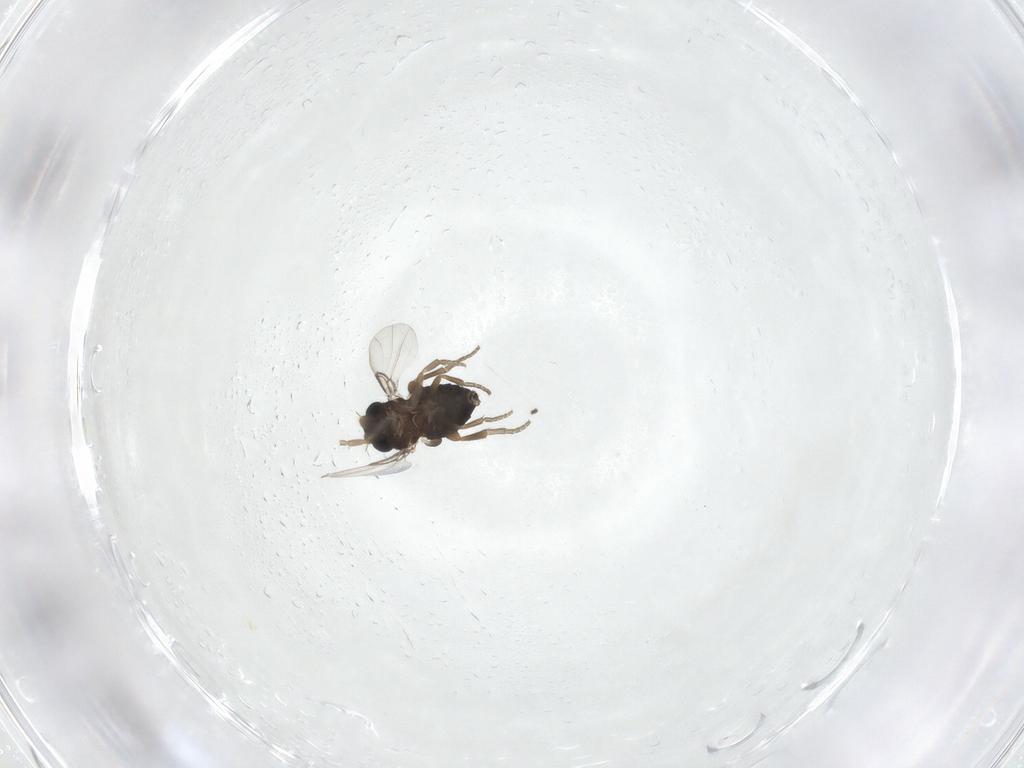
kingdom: Animalia
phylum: Arthropoda
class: Insecta
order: Diptera
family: Phoridae
